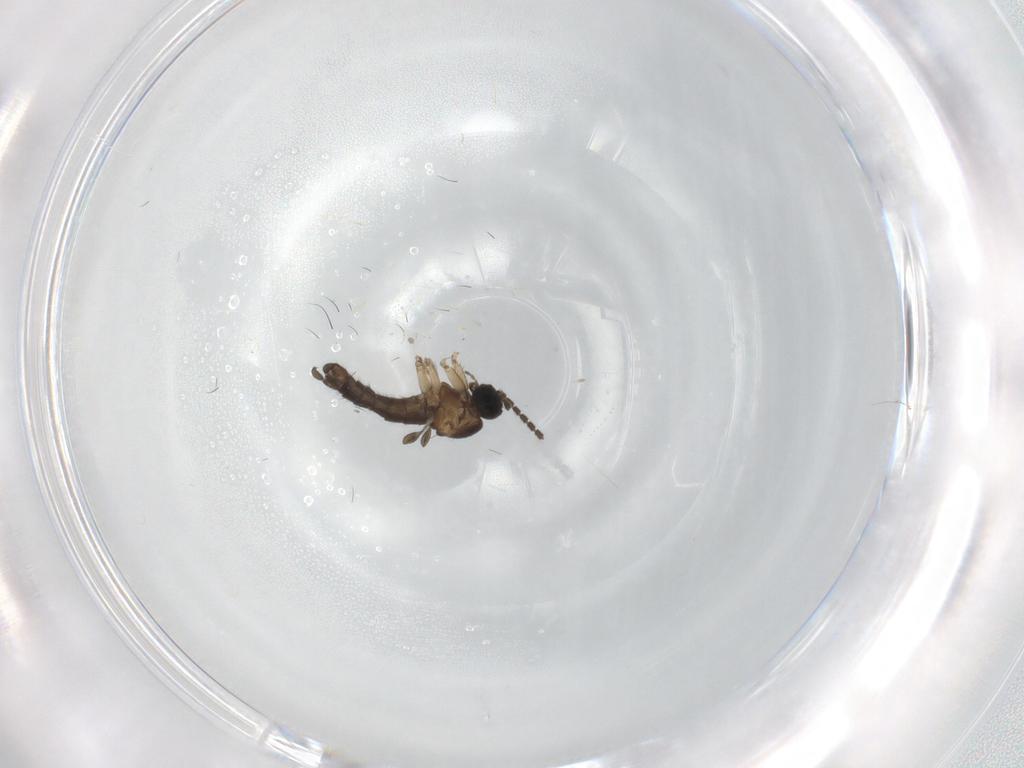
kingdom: Animalia
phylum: Arthropoda
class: Insecta
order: Diptera
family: Sciaridae
